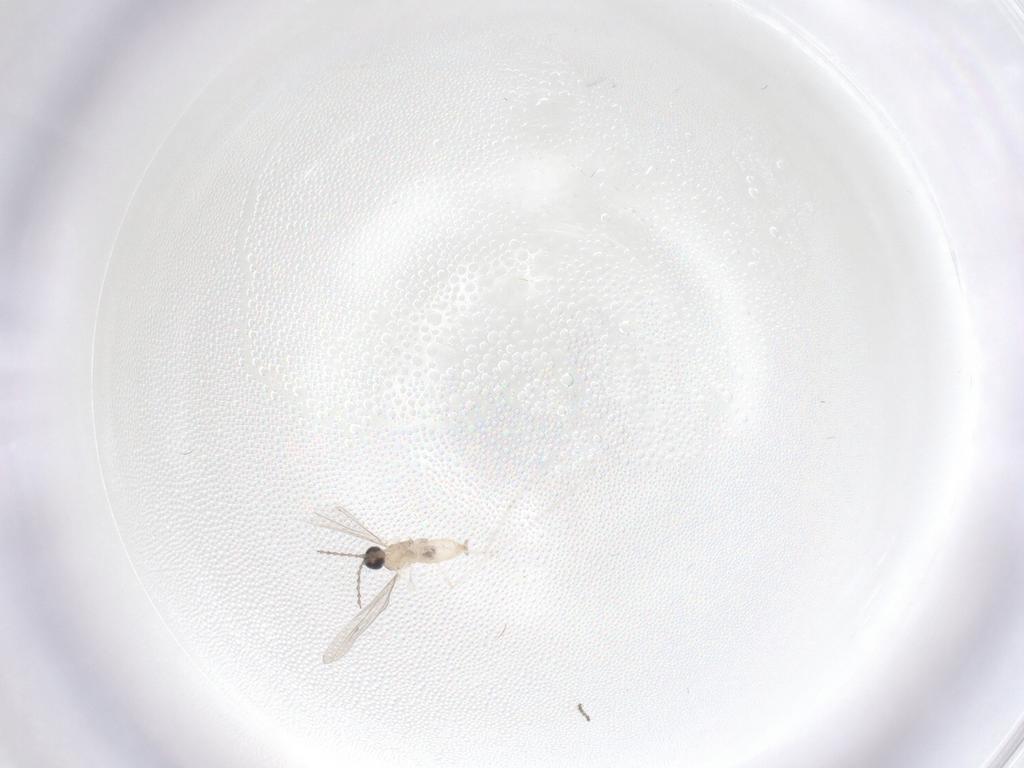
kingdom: Animalia
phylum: Arthropoda
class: Insecta
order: Diptera
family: Cecidomyiidae
